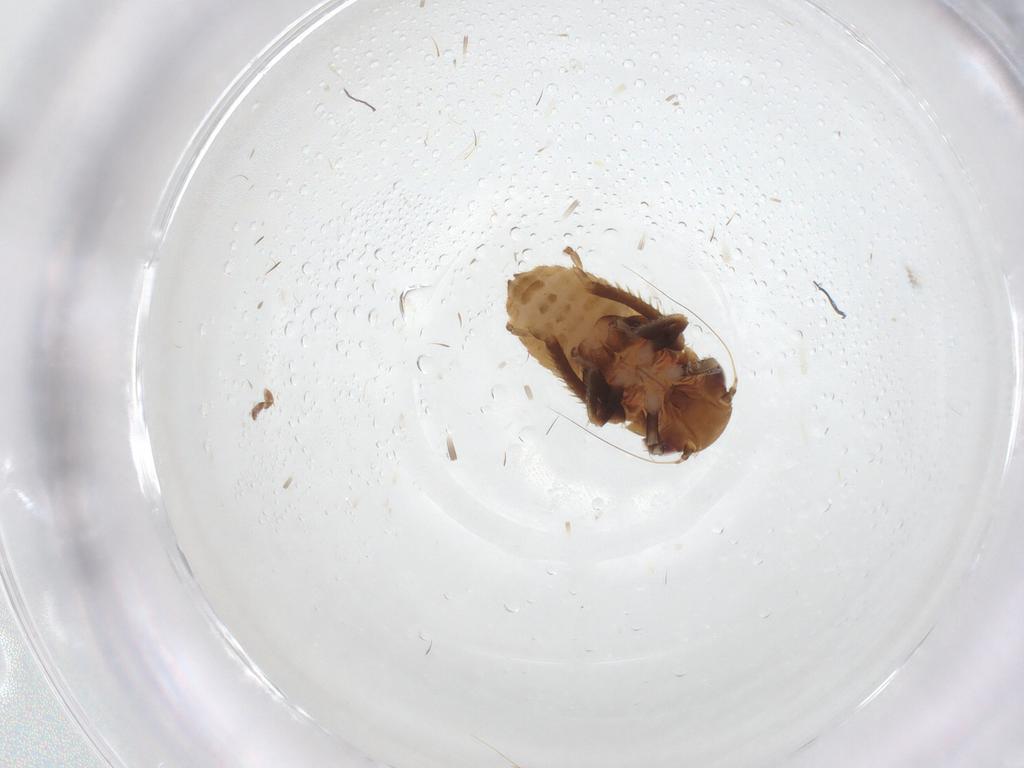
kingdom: Animalia
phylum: Arthropoda
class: Insecta
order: Hemiptera
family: Cicadellidae
